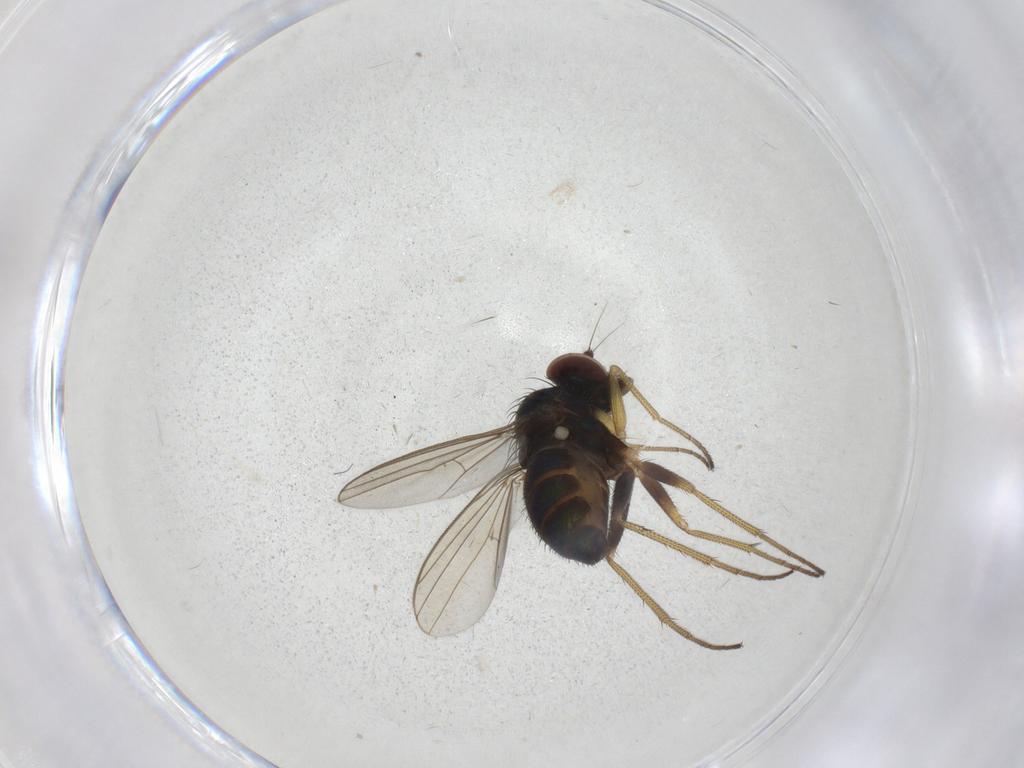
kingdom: Animalia
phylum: Arthropoda
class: Insecta
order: Diptera
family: Dolichopodidae
